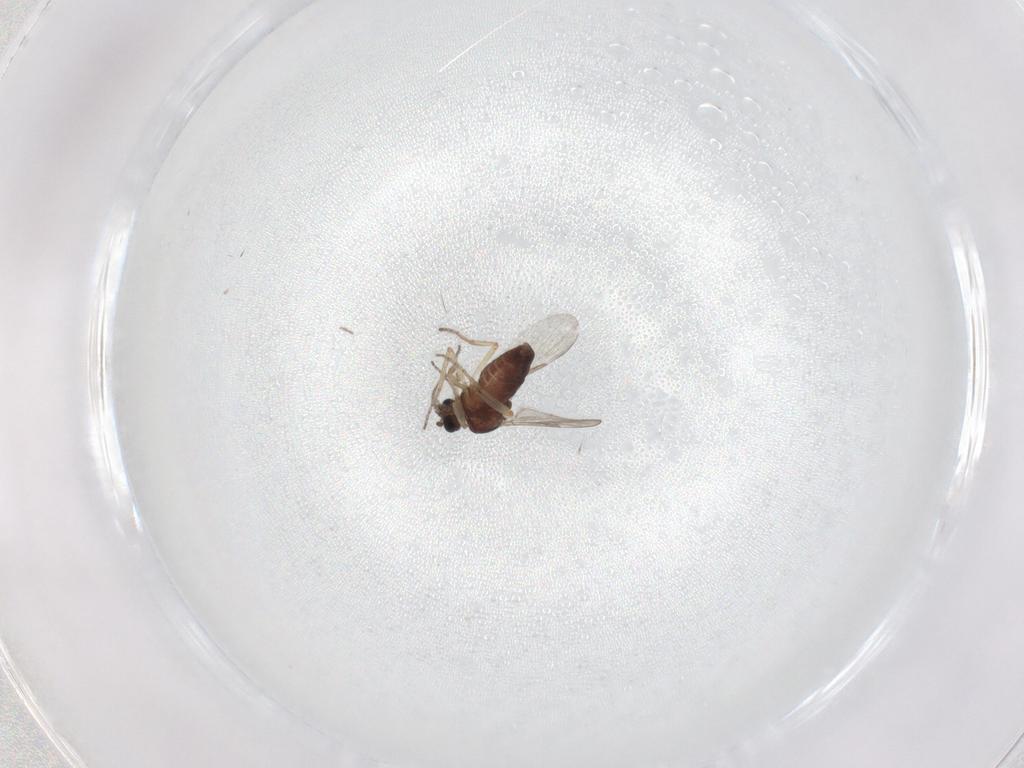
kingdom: Animalia
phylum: Arthropoda
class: Insecta
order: Diptera
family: Ceratopogonidae
